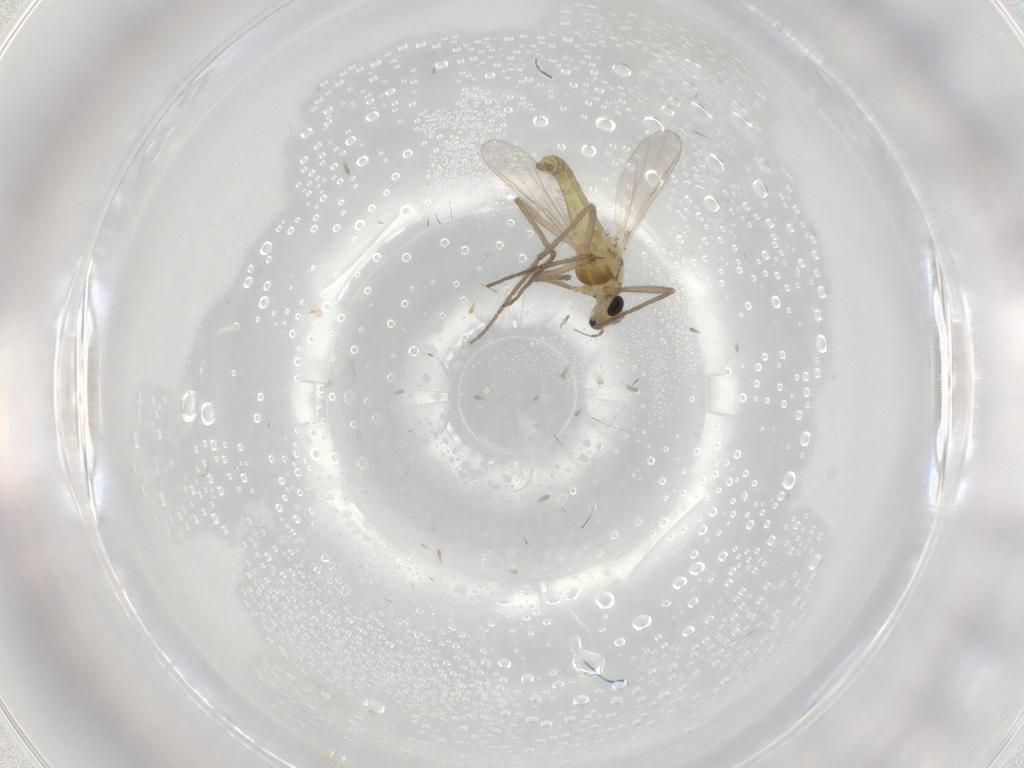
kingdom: Animalia
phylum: Arthropoda
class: Insecta
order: Diptera
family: Chironomidae
